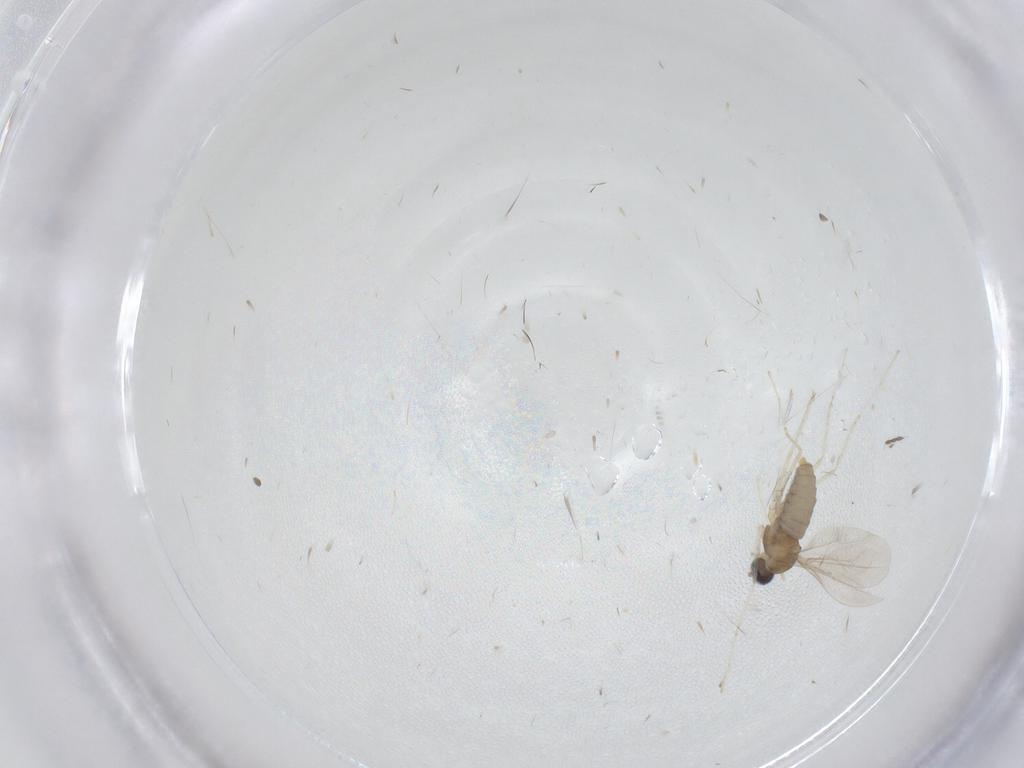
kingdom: Animalia
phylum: Arthropoda
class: Insecta
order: Diptera
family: Cecidomyiidae
